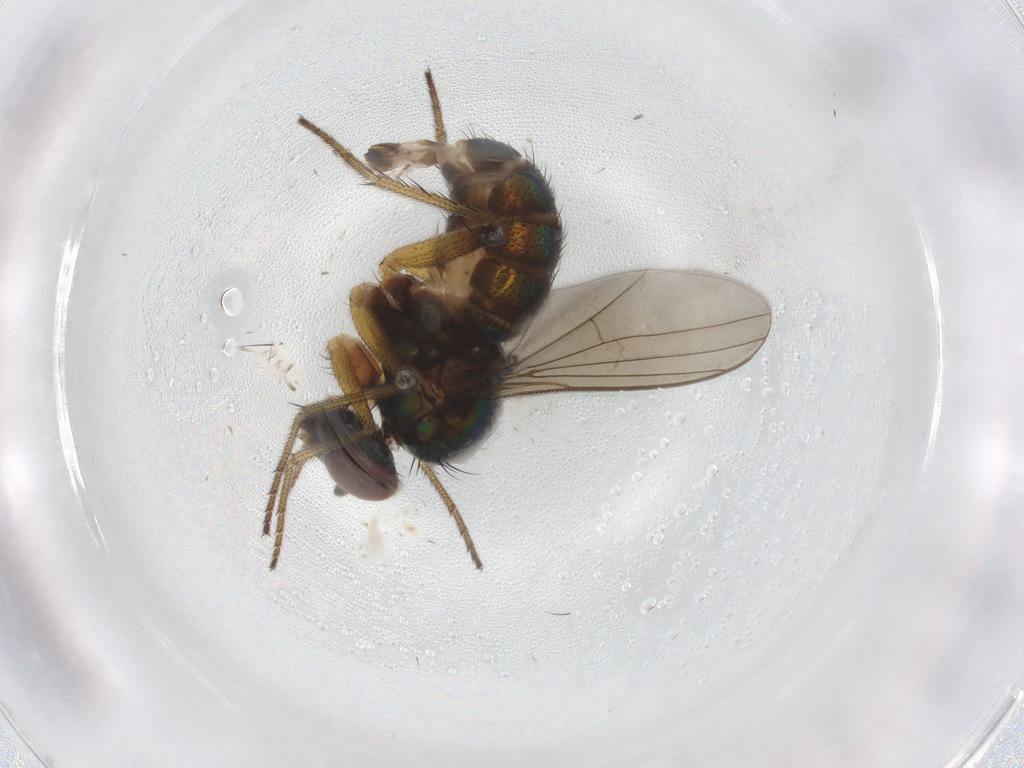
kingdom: Animalia
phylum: Arthropoda
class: Insecta
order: Diptera
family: Dolichopodidae
